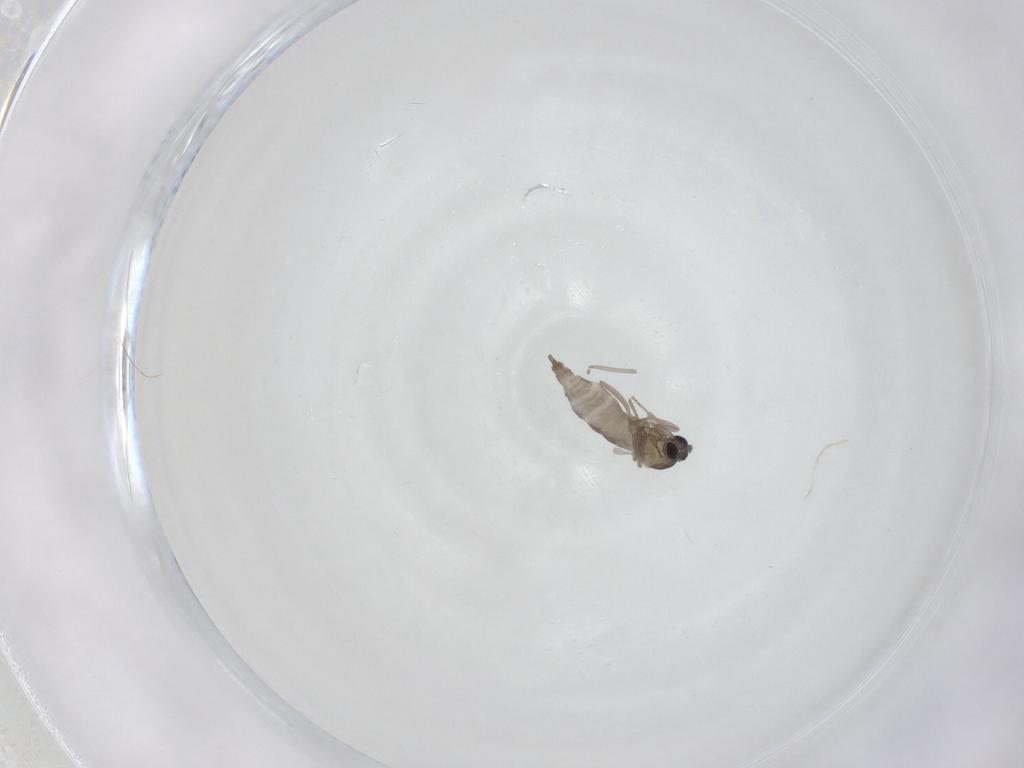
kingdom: Animalia
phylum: Arthropoda
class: Insecta
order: Diptera
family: Cecidomyiidae
